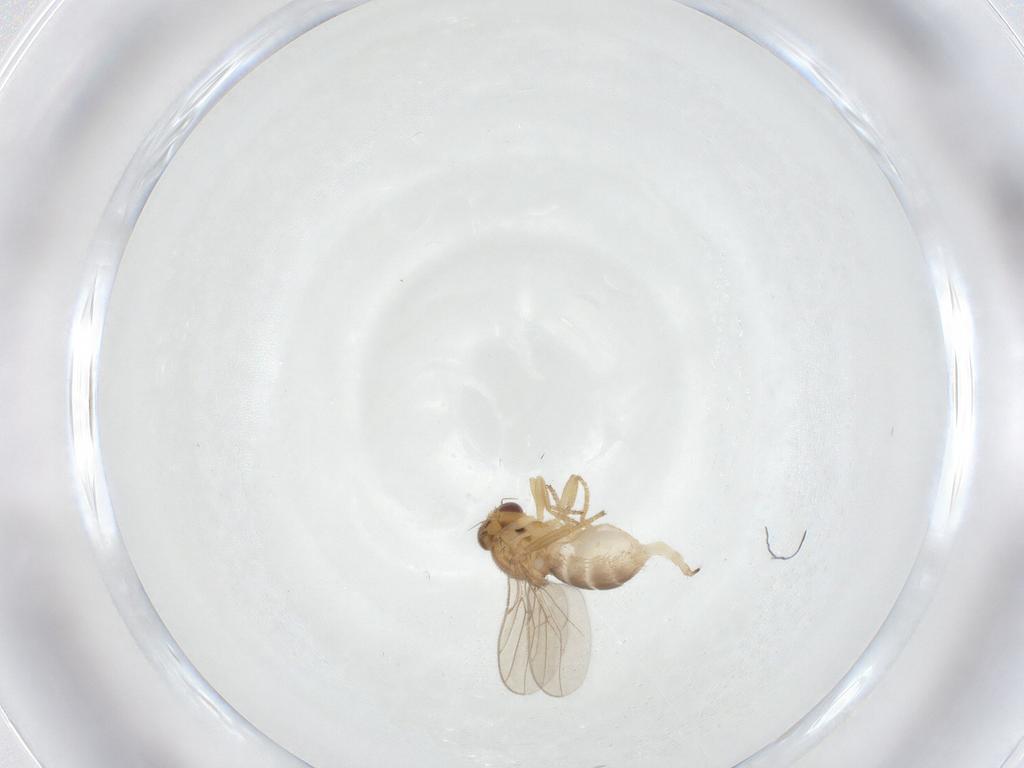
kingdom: Animalia
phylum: Arthropoda
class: Insecta
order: Diptera
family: Chloropidae
